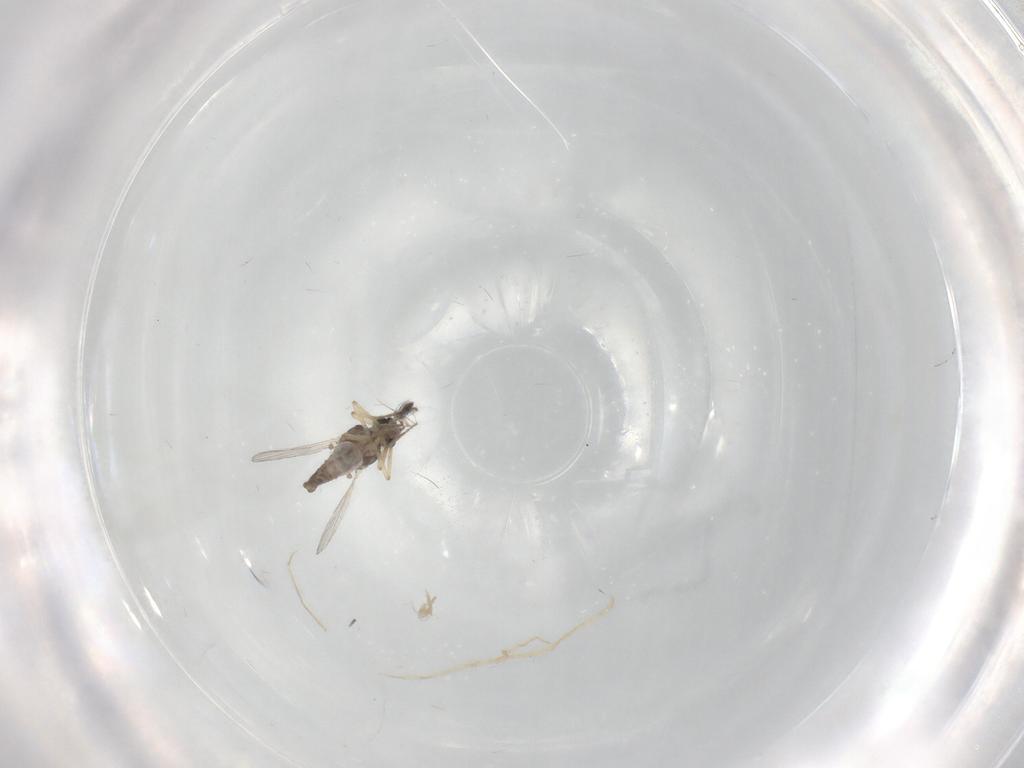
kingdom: Animalia
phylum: Arthropoda
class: Insecta
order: Diptera
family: Ceratopogonidae
